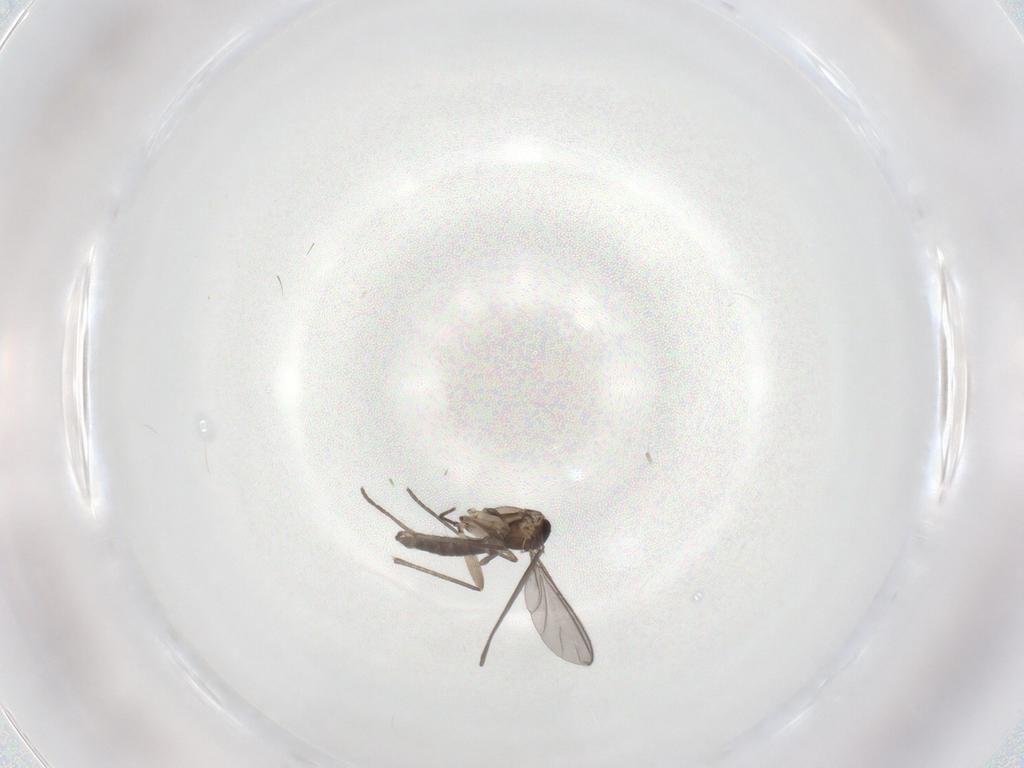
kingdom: Animalia
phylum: Arthropoda
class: Insecta
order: Diptera
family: Sciaridae
